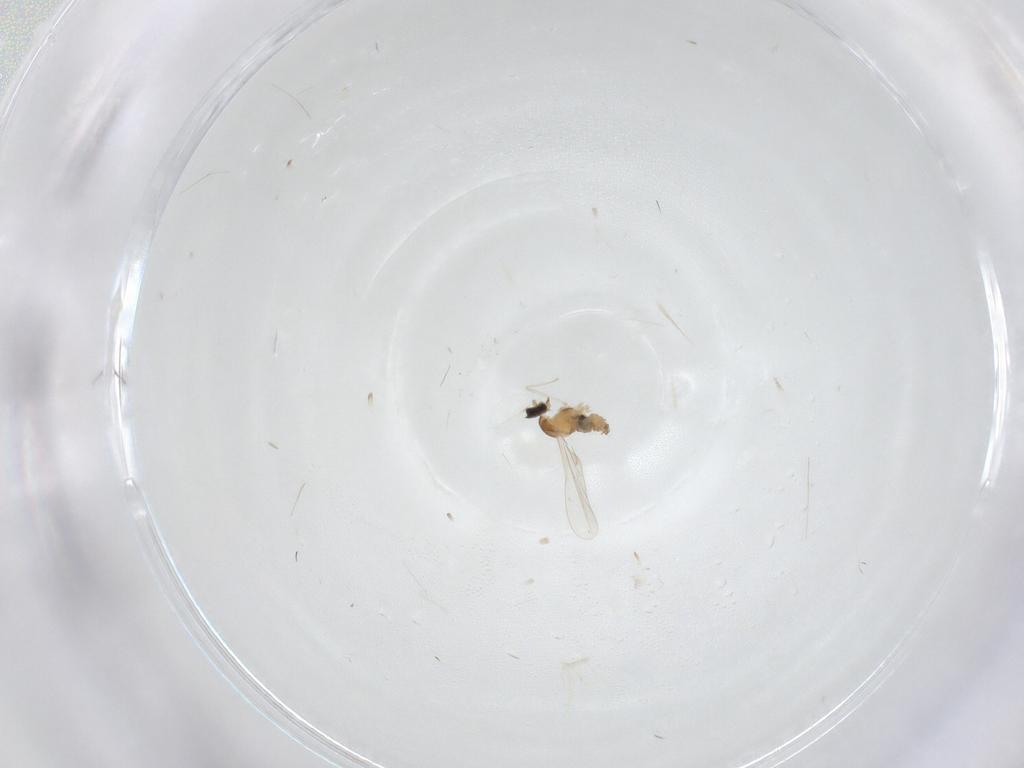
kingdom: Animalia
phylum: Arthropoda
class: Insecta
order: Diptera
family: Cecidomyiidae
